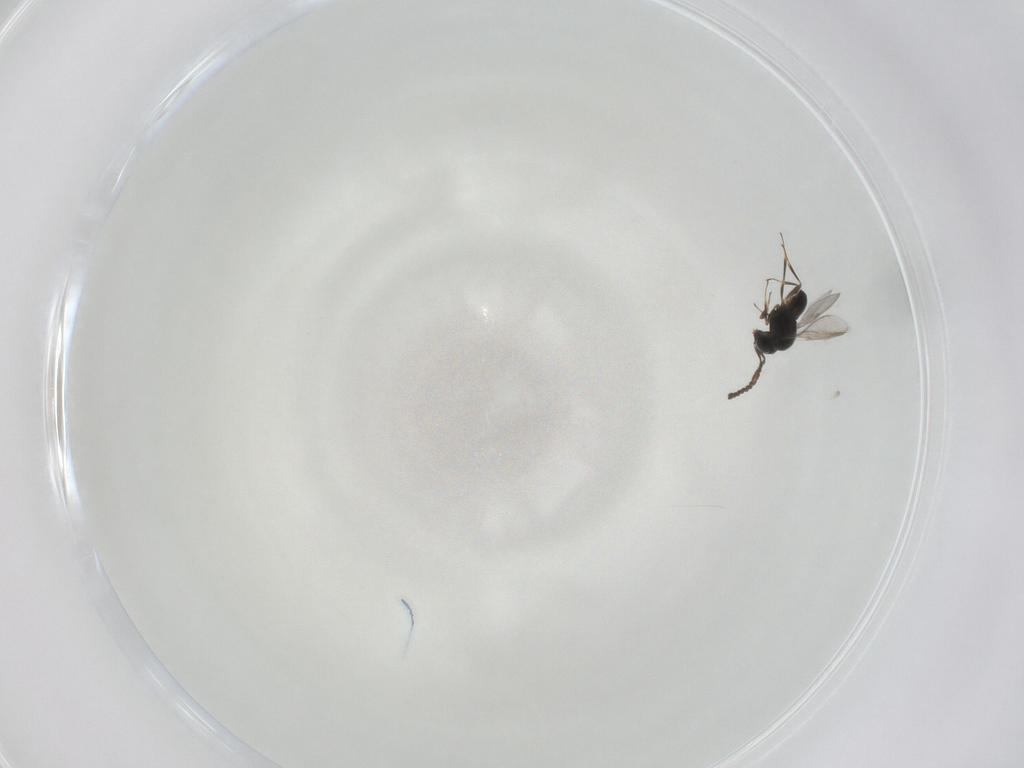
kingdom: Animalia
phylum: Arthropoda
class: Insecta
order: Hymenoptera
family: Scelionidae
